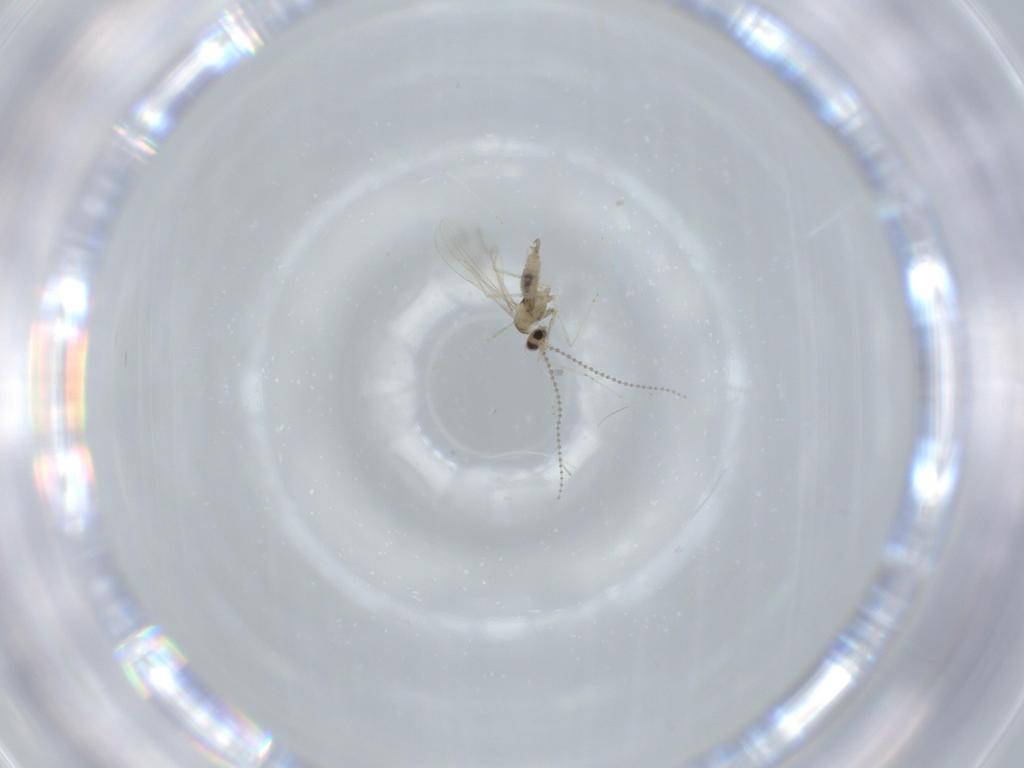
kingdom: Animalia
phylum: Arthropoda
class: Insecta
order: Diptera
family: Cecidomyiidae
